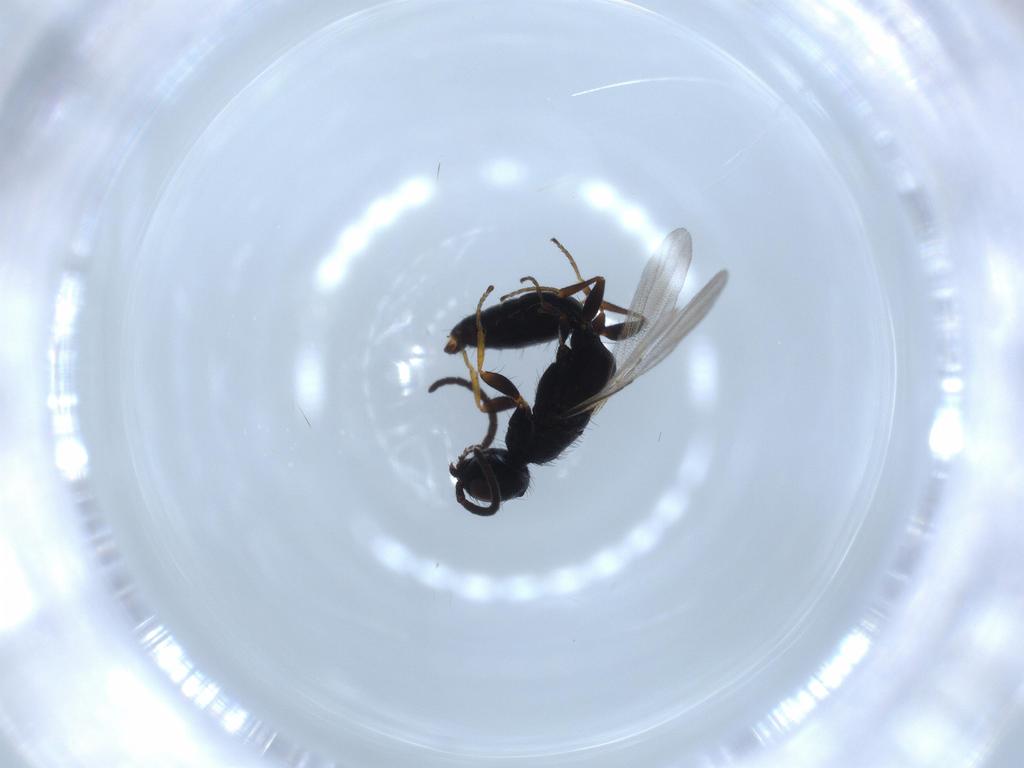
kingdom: Animalia
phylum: Arthropoda
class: Insecta
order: Hymenoptera
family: Bethylidae
